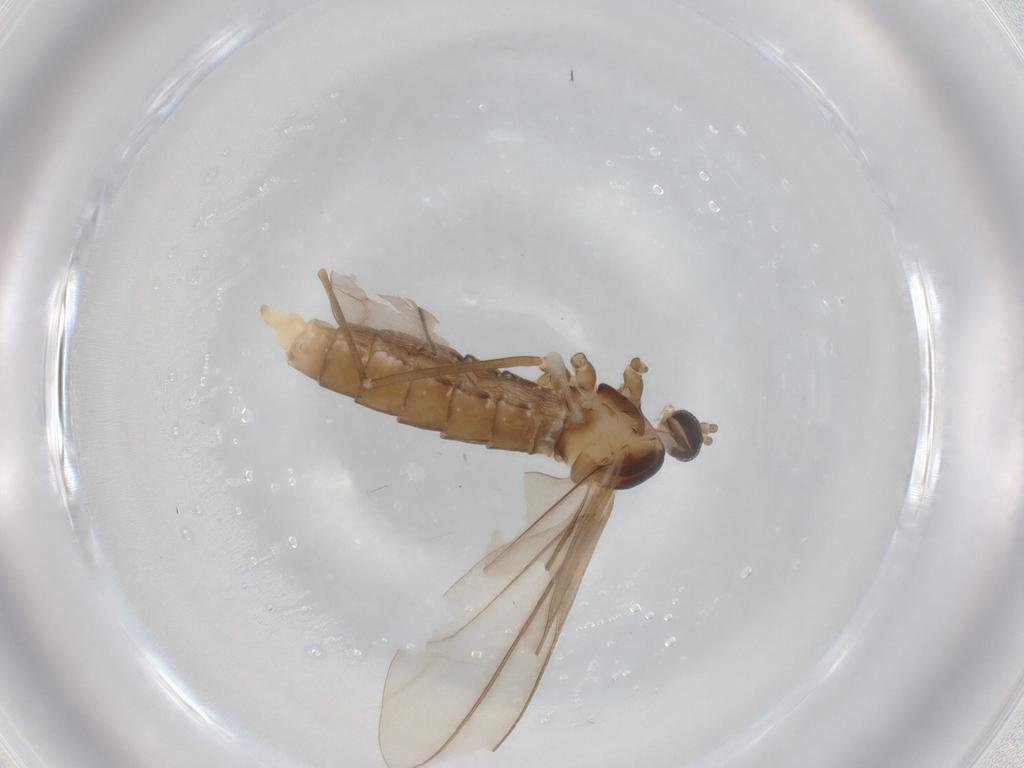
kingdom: Animalia
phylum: Arthropoda
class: Insecta
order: Diptera
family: Cecidomyiidae
